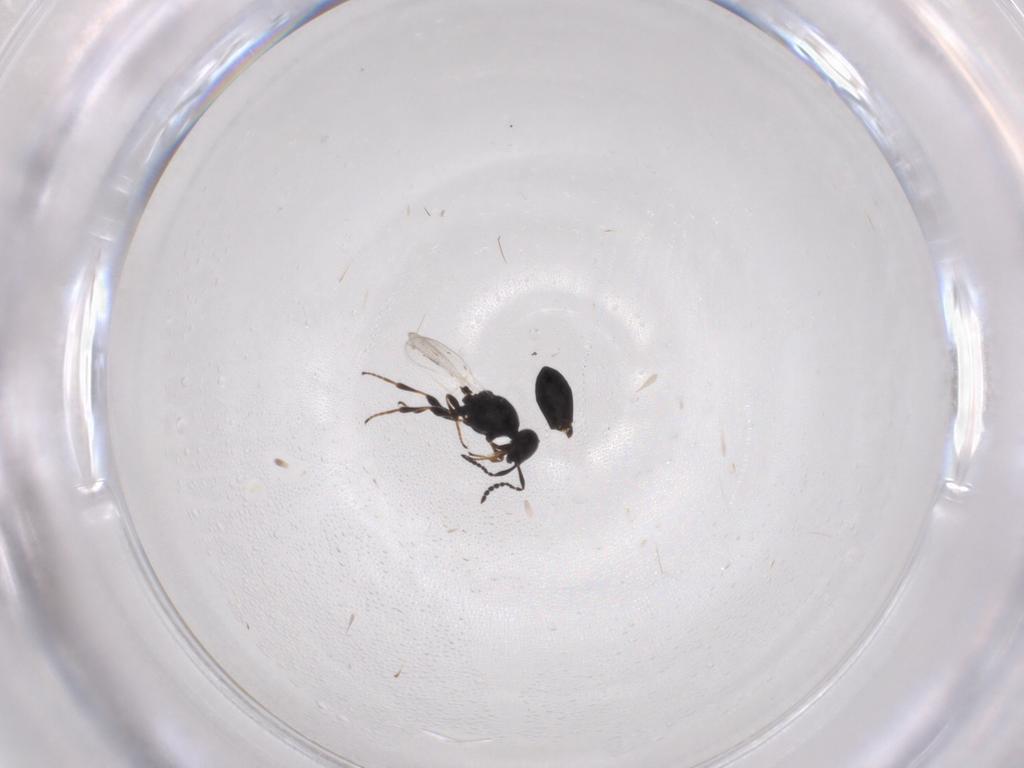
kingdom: Animalia
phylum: Arthropoda
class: Insecta
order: Hymenoptera
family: Platygastridae
